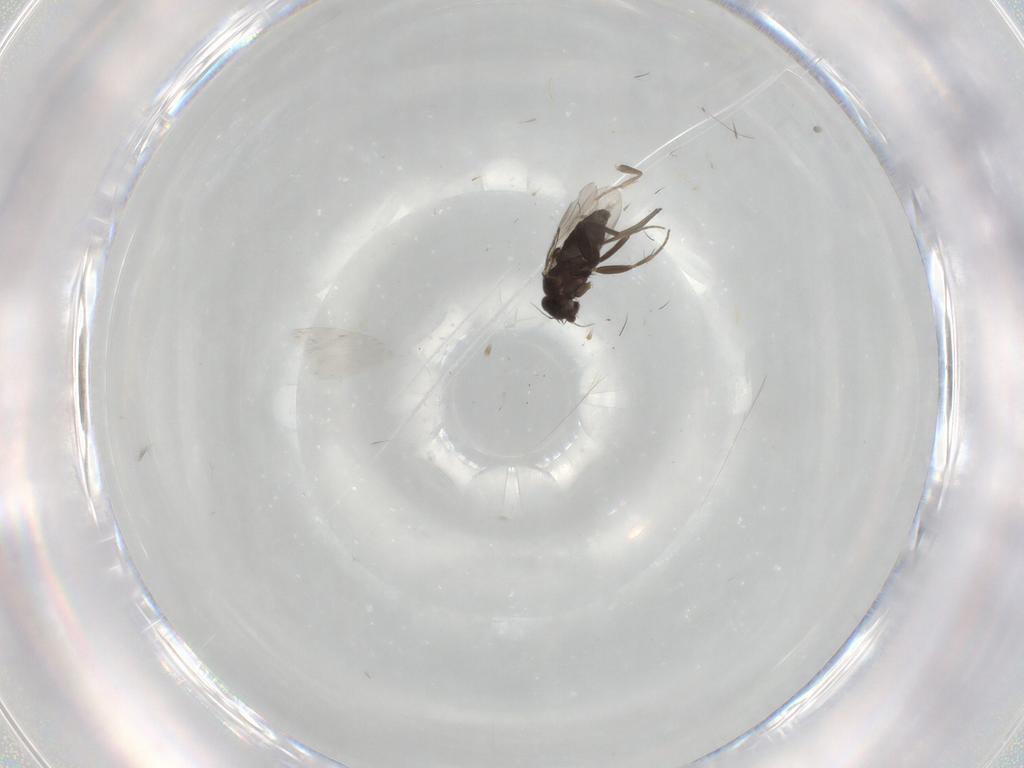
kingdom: Animalia
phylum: Arthropoda
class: Insecta
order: Diptera
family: Phoridae
